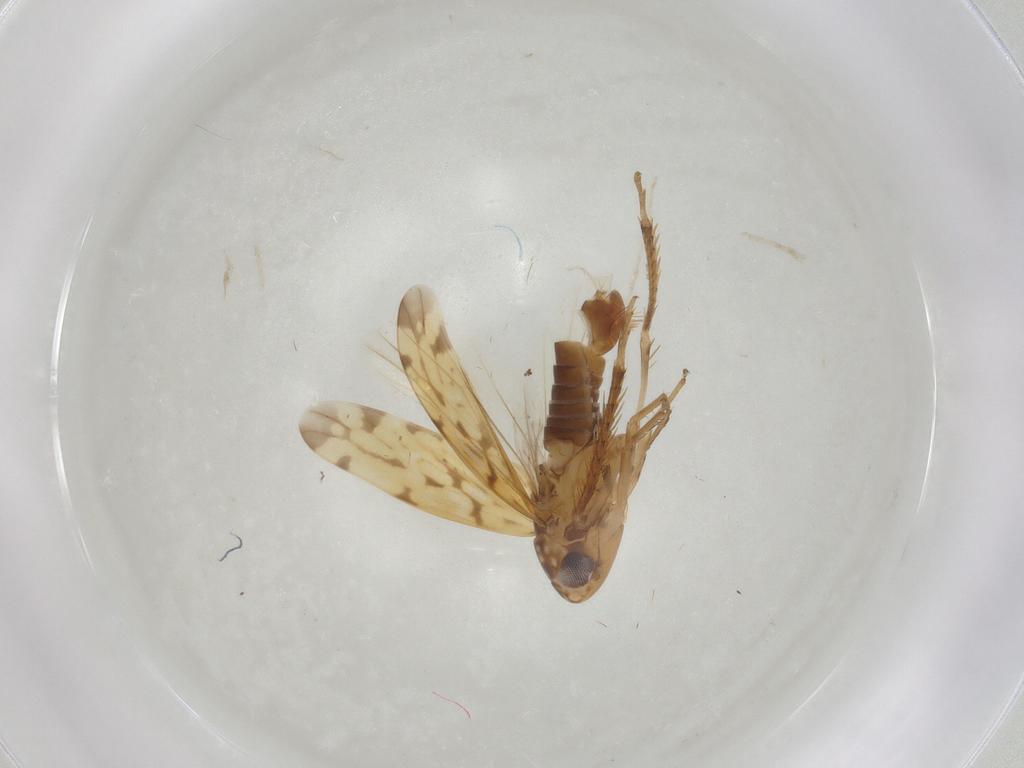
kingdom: Animalia
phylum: Arthropoda
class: Insecta
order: Hemiptera
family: Cicadellidae
